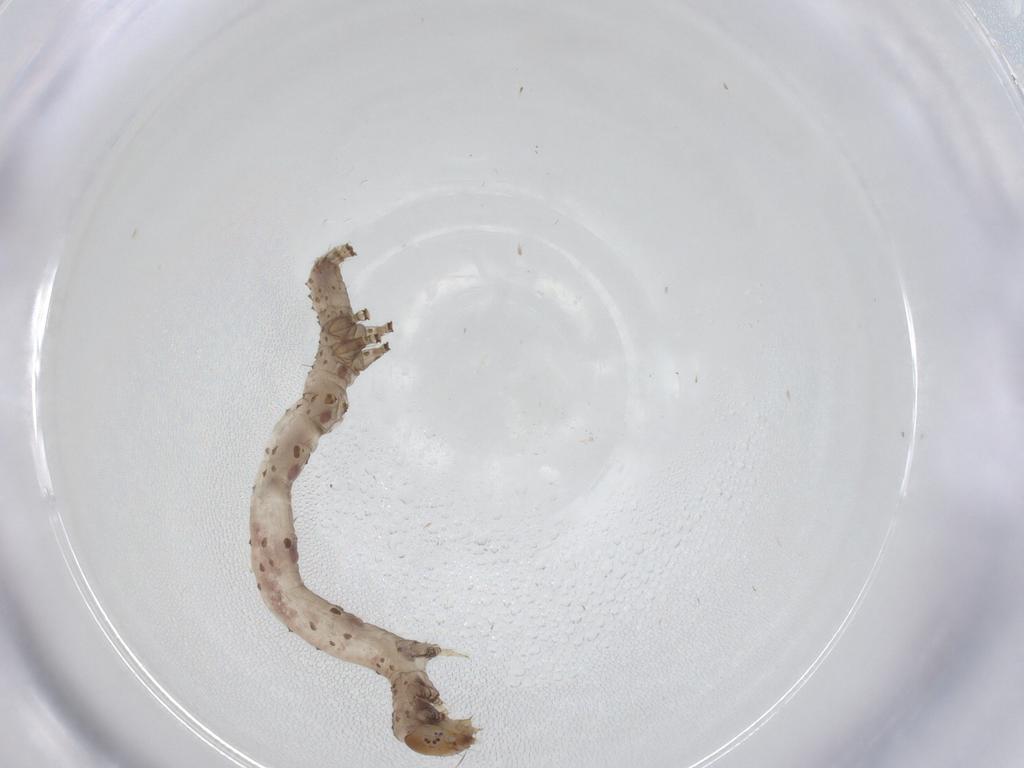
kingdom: Animalia
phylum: Arthropoda
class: Insecta
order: Lepidoptera
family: Erebidae
